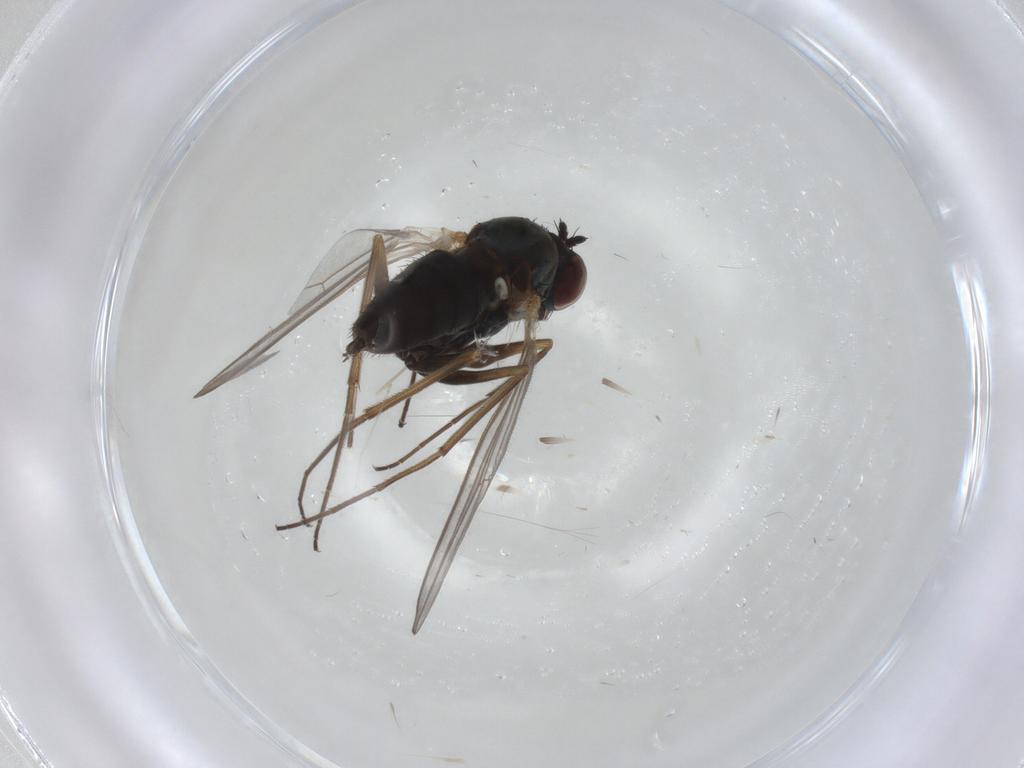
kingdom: Animalia
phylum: Arthropoda
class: Insecta
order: Diptera
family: Dolichopodidae
